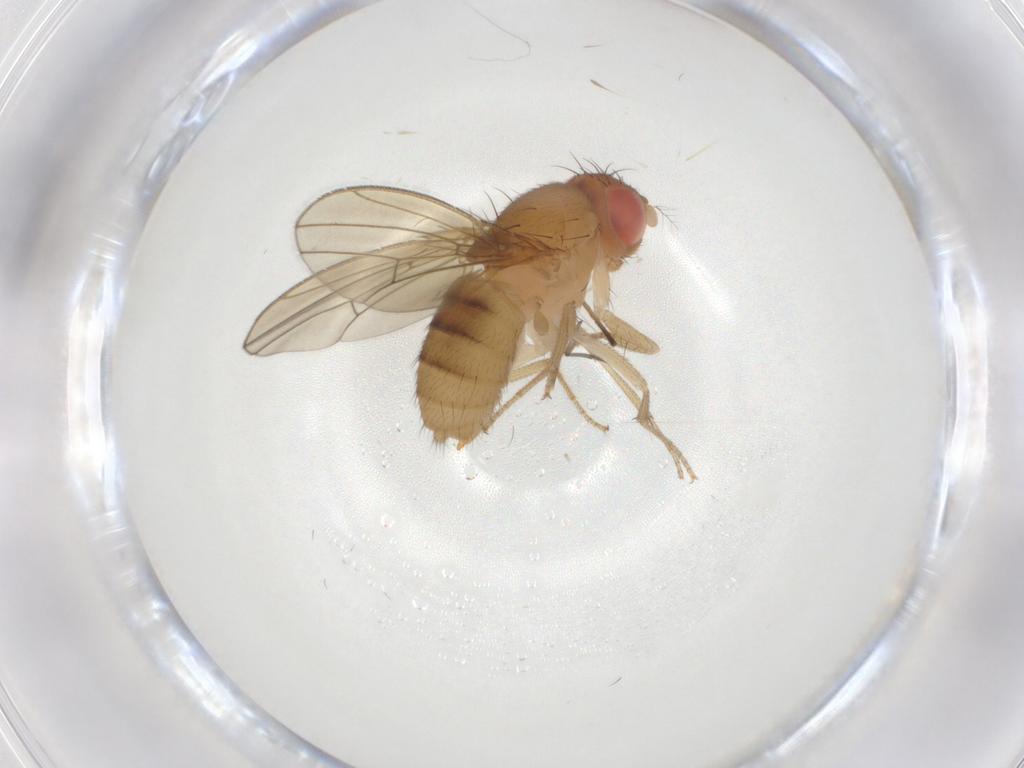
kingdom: Animalia
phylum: Arthropoda
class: Insecta
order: Diptera
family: Drosophilidae
